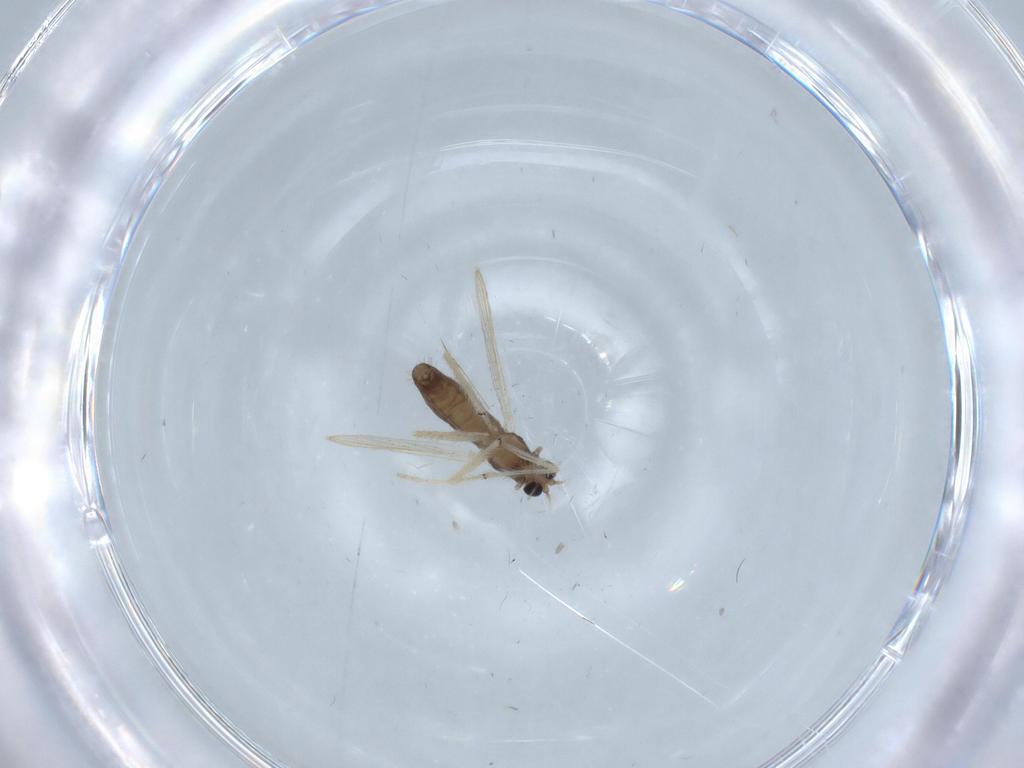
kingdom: Animalia
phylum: Arthropoda
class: Insecta
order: Diptera
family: Chironomidae
